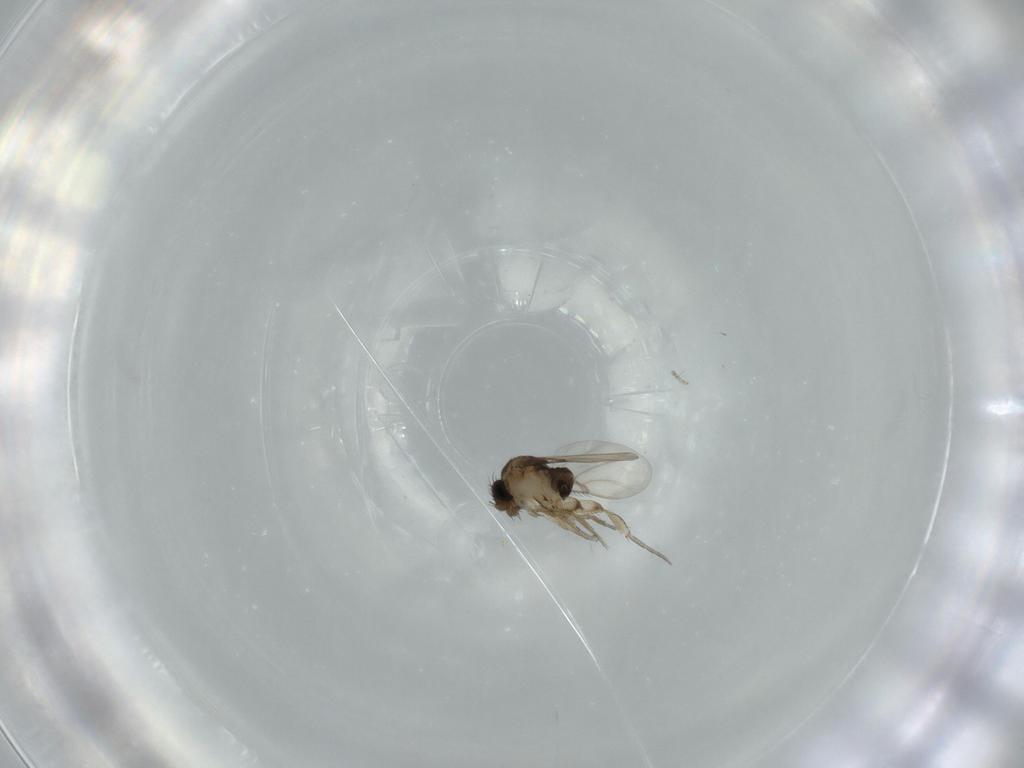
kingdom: Animalia
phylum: Arthropoda
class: Insecta
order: Diptera
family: Phoridae
